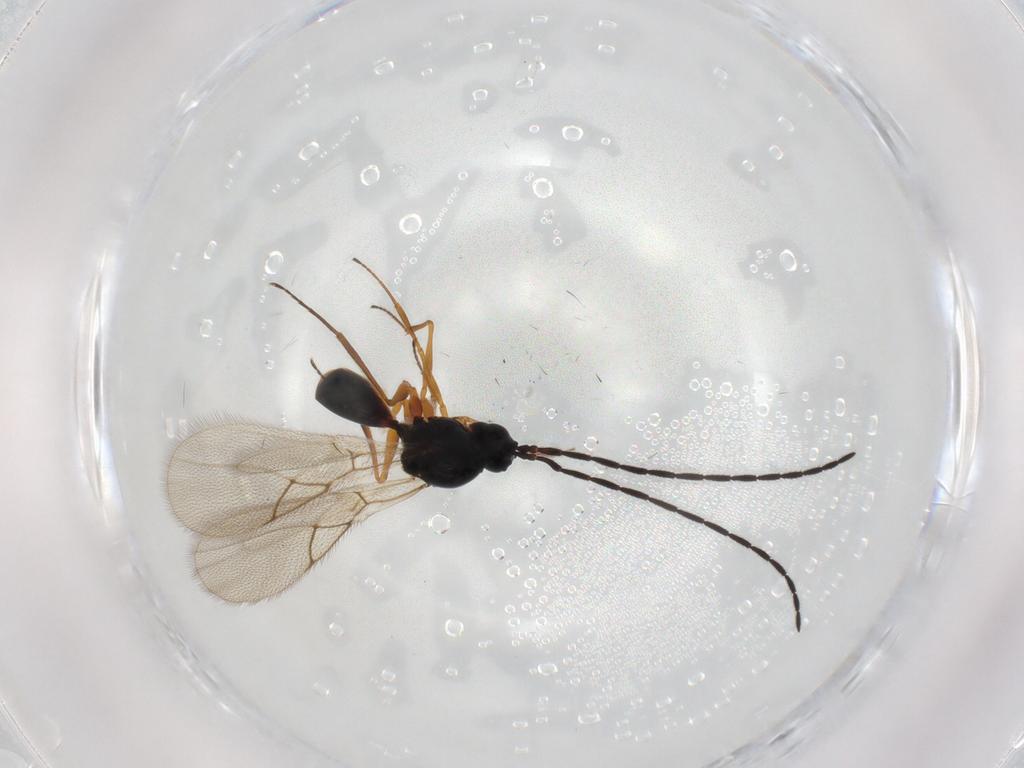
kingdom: Animalia
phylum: Arthropoda
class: Insecta
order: Hymenoptera
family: Figitidae
